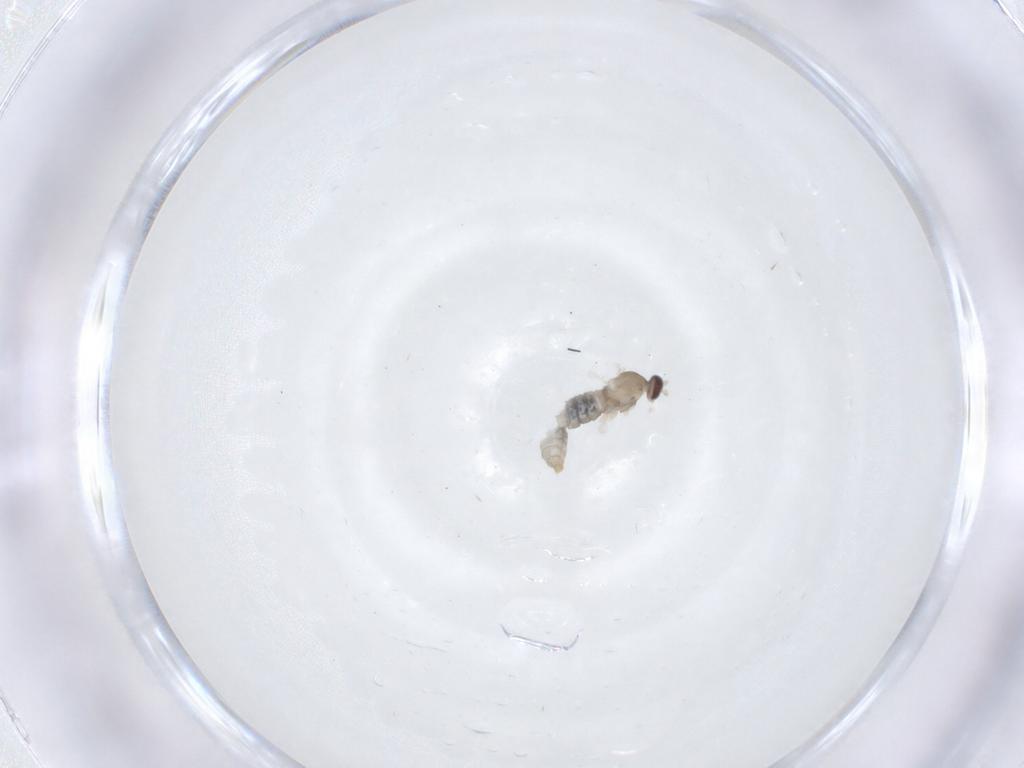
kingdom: Animalia
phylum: Arthropoda
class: Insecta
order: Diptera
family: Cecidomyiidae
